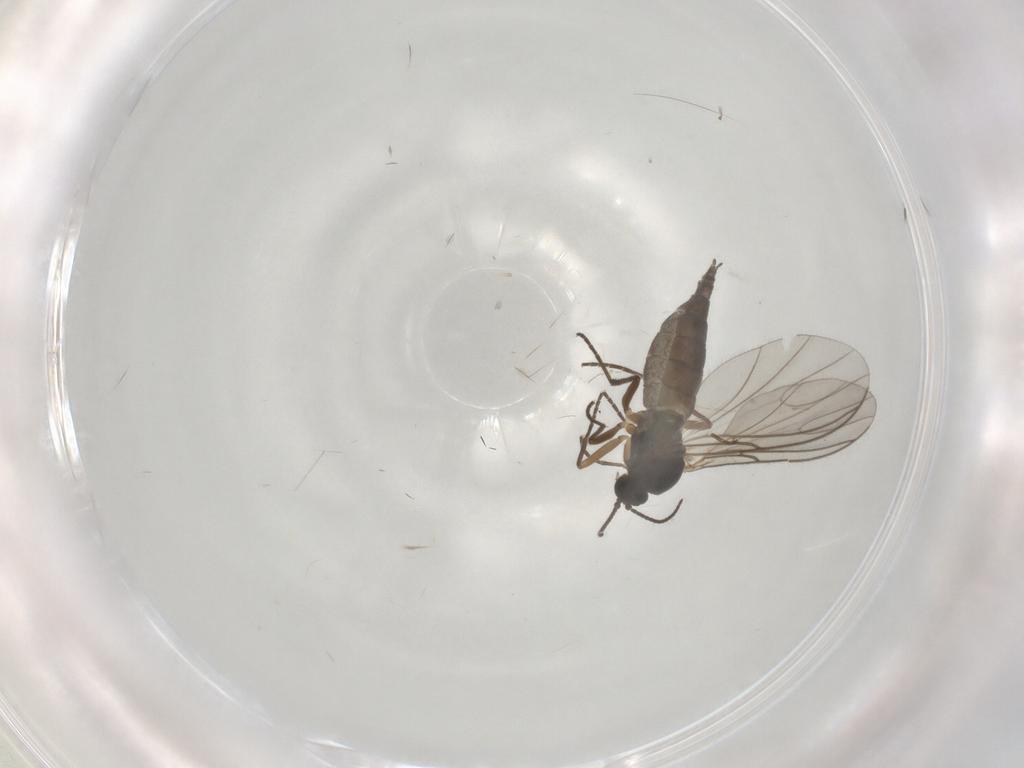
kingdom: Animalia
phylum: Arthropoda
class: Insecta
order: Diptera
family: Sciaridae
